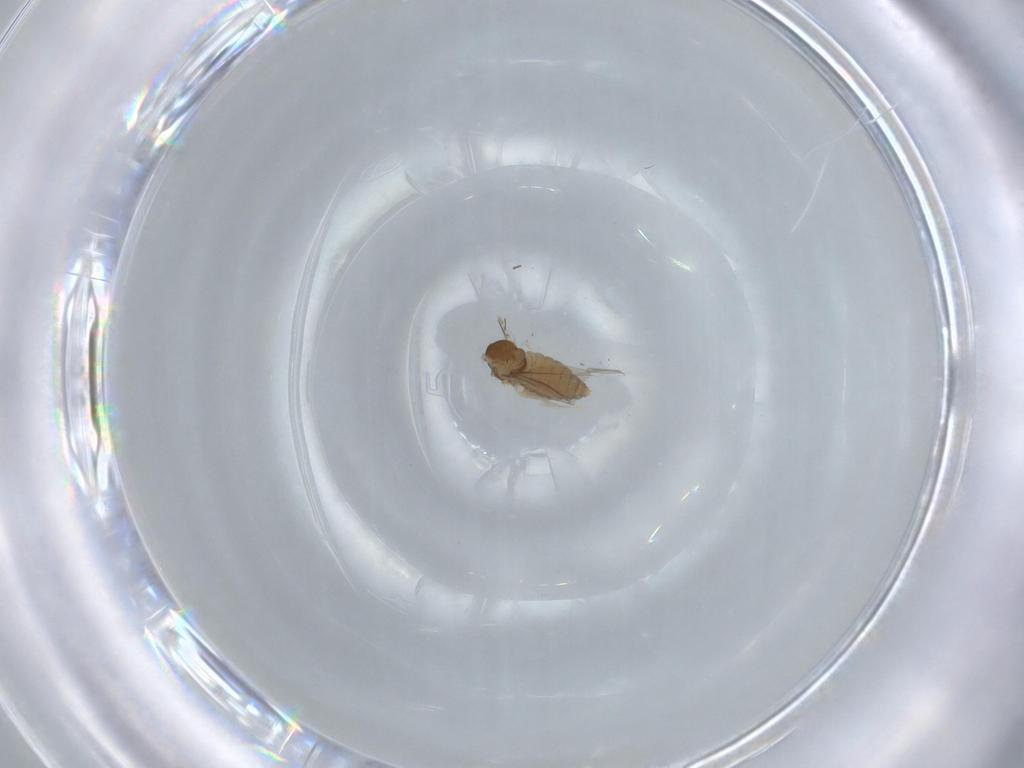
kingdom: Animalia
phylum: Arthropoda
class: Insecta
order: Diptera
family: Cecidomyiidae
